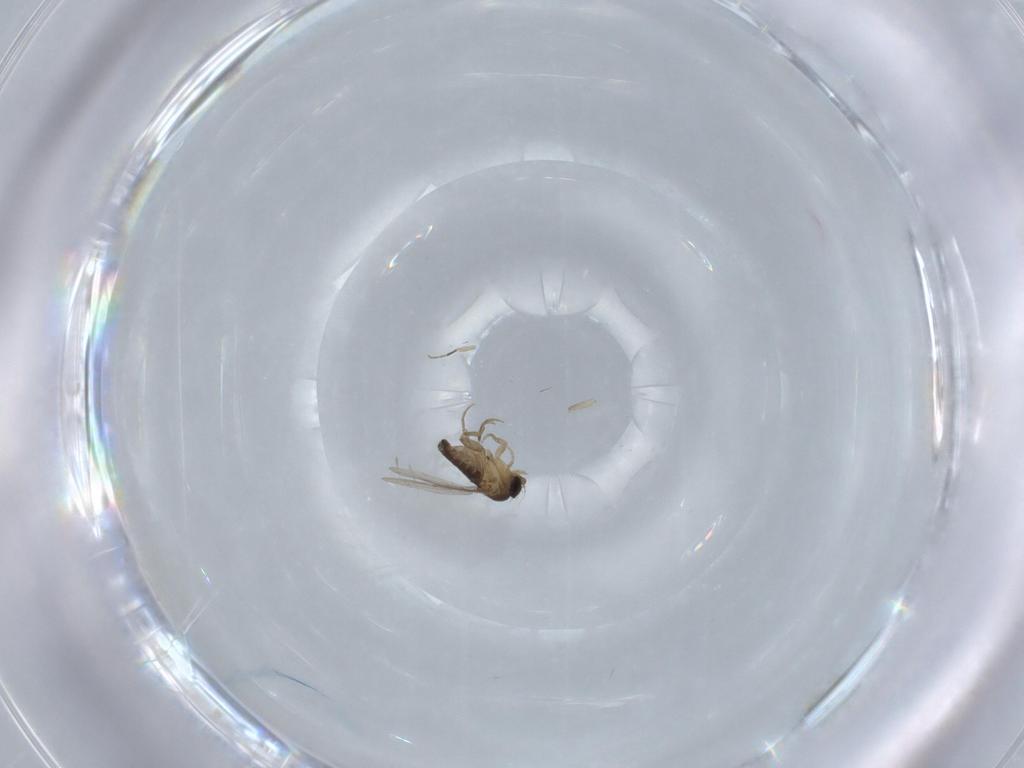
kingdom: Animalia
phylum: Arthropoda
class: Insecta
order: Diptera
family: Phoridae
